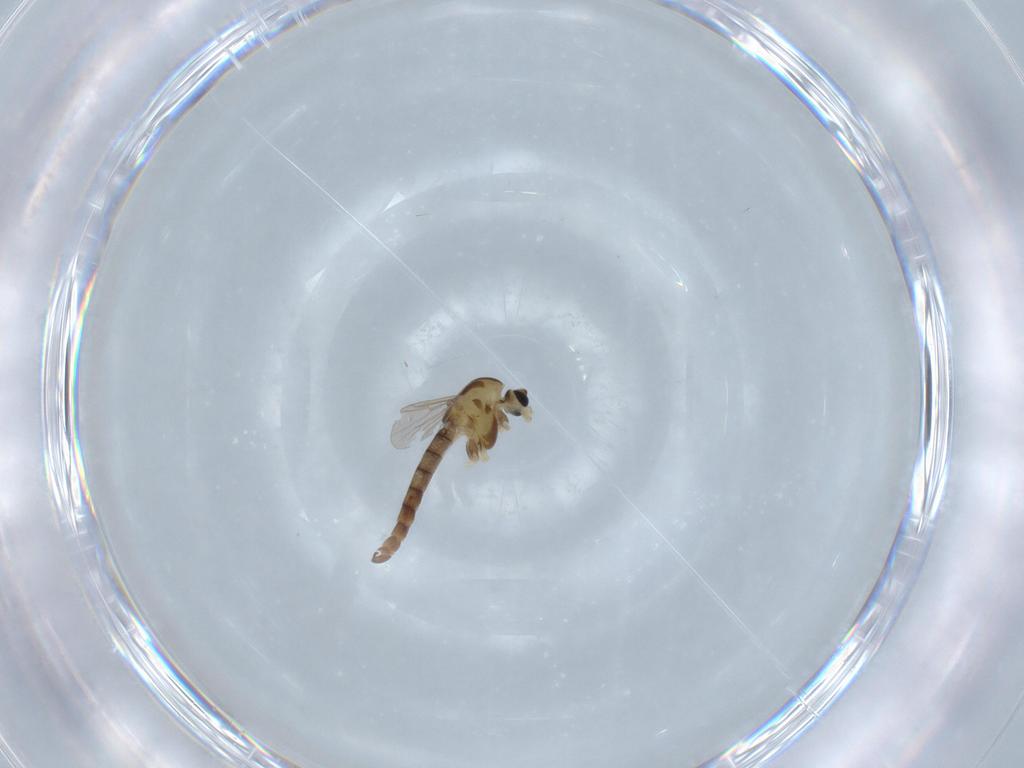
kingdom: Animalia
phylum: Arthropoda
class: Insecta
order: Diptera
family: Chironomidae
